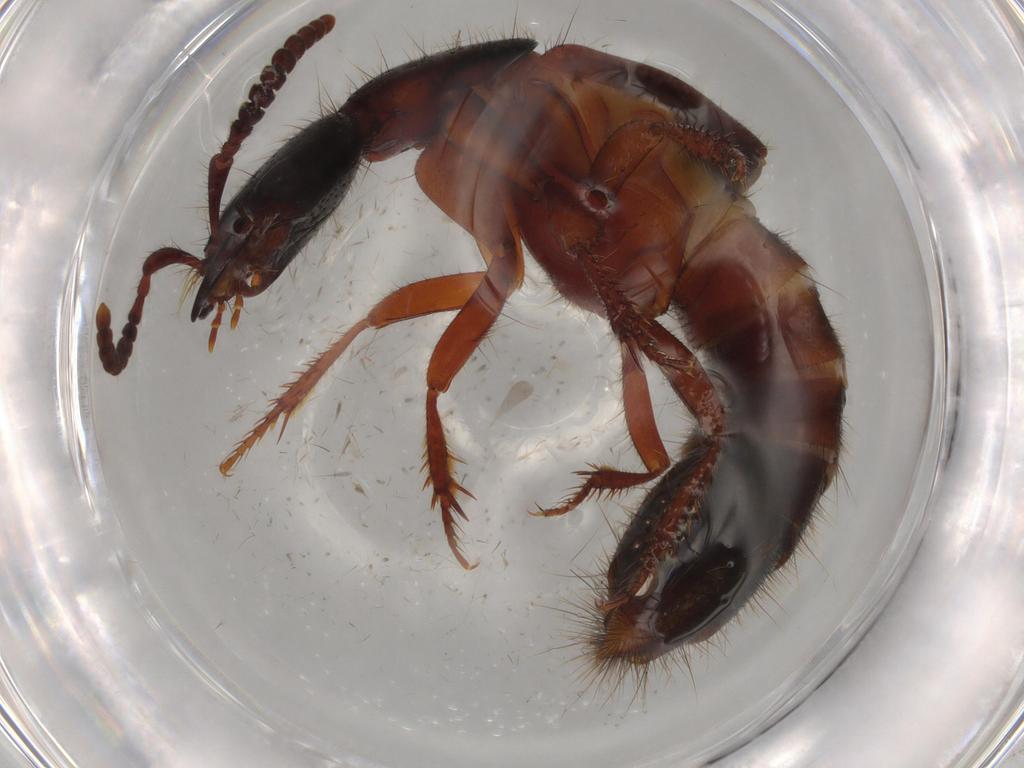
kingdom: Animalia
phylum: Arthropoda
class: Insecta
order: Coleoptera
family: Staphylinidae
